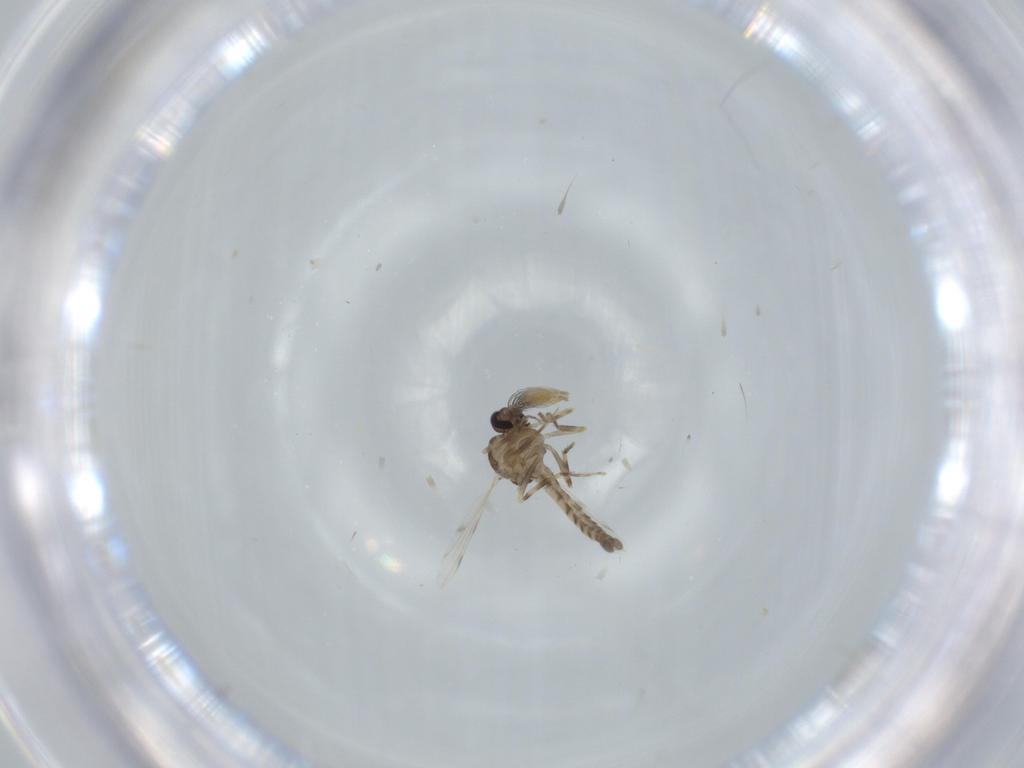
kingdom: Animalia
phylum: Arthropoda
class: Insecta
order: Diptera
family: Ceratopogonidae
